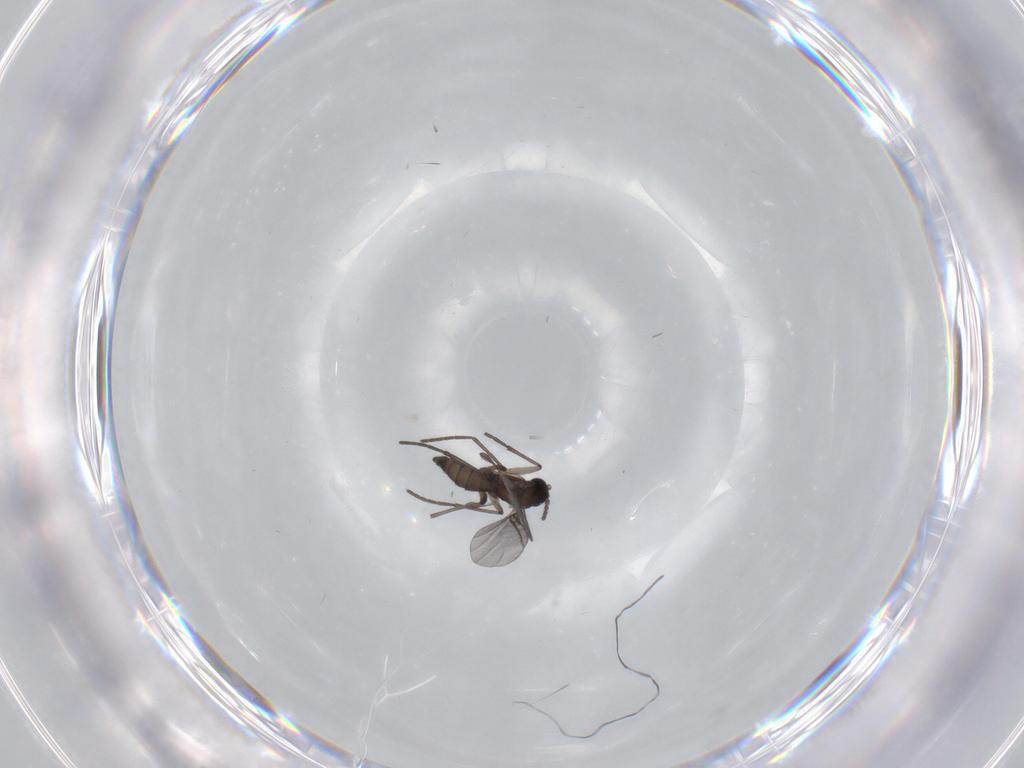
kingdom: Animalia
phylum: Arthropoda
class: Insecta
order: Diptera
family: Sciaridae
